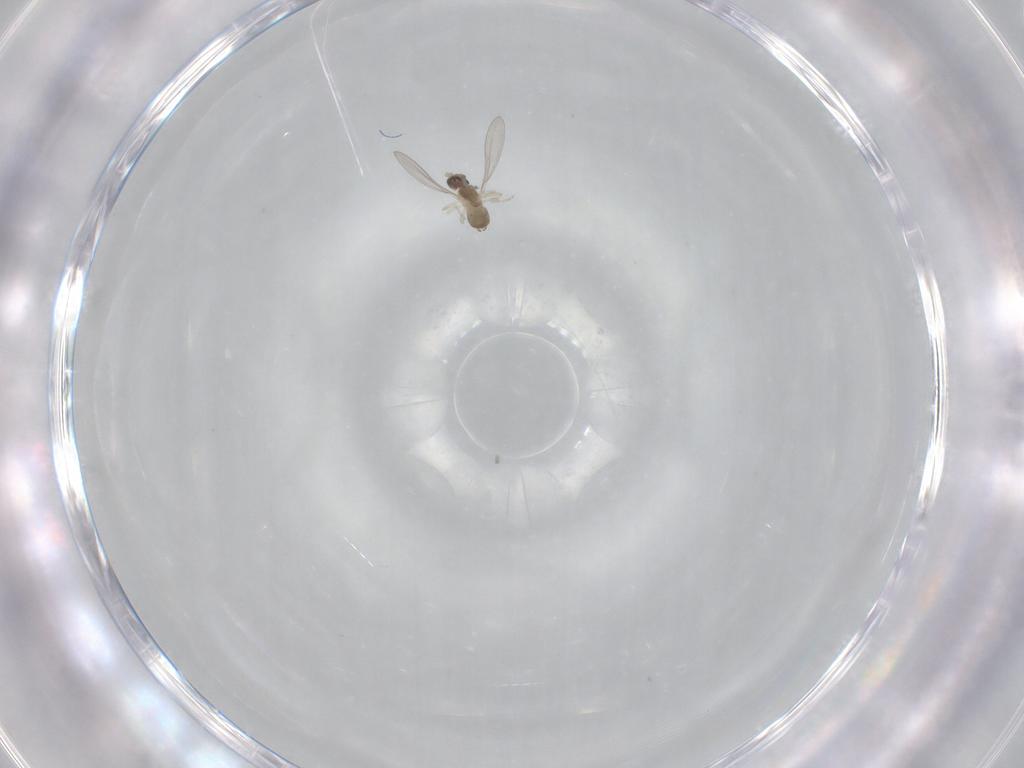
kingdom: Animalia
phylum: Arthropoda
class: Insecta
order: Diptera
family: Cecidomyiidae
